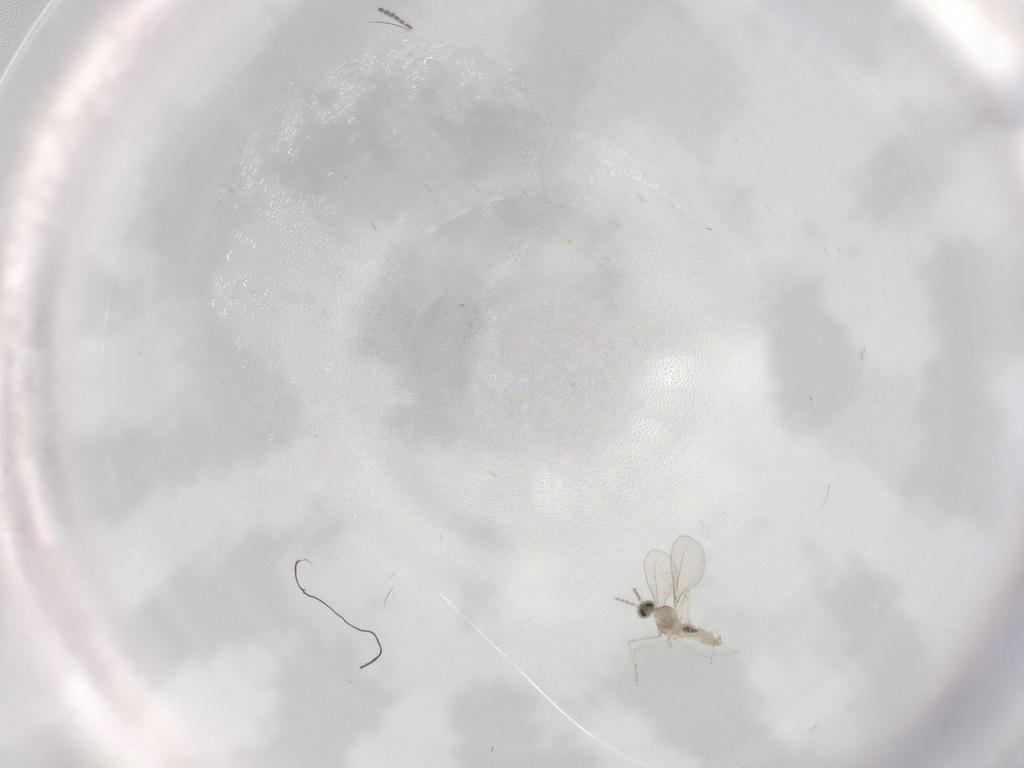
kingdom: Animalia
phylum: Arthropoda
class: Insecta
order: Diptera
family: Cecidomyiidae
